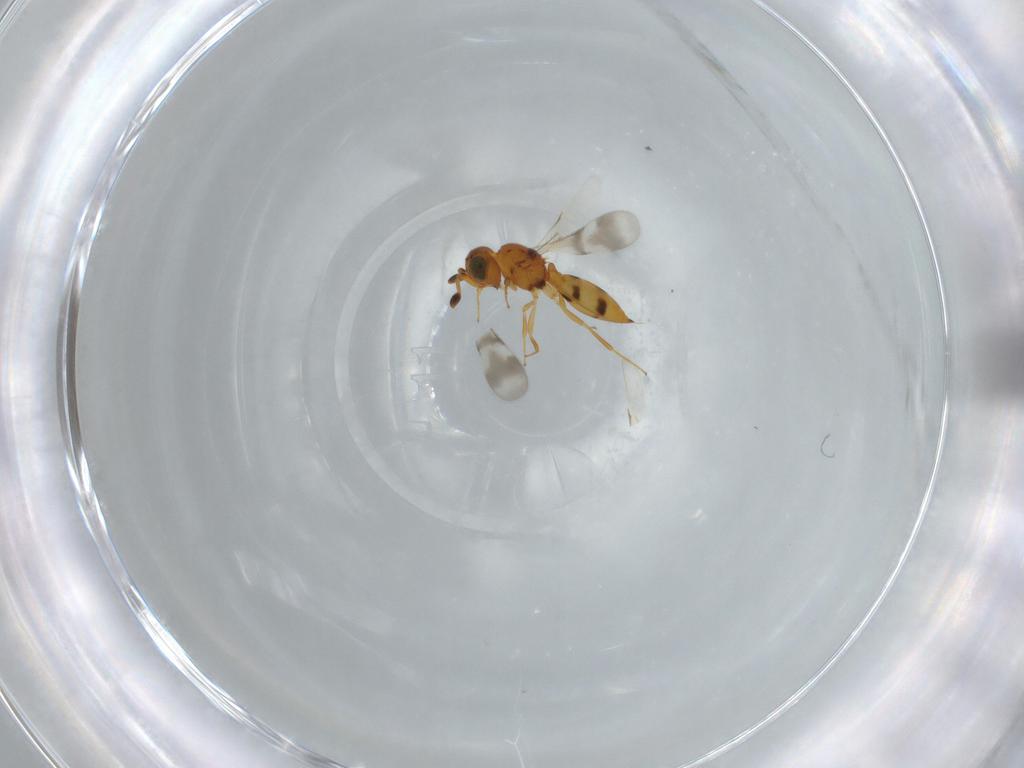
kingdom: Animalia
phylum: Arthropoda
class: Insecta
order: Hymenoptera
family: Scelionidae
